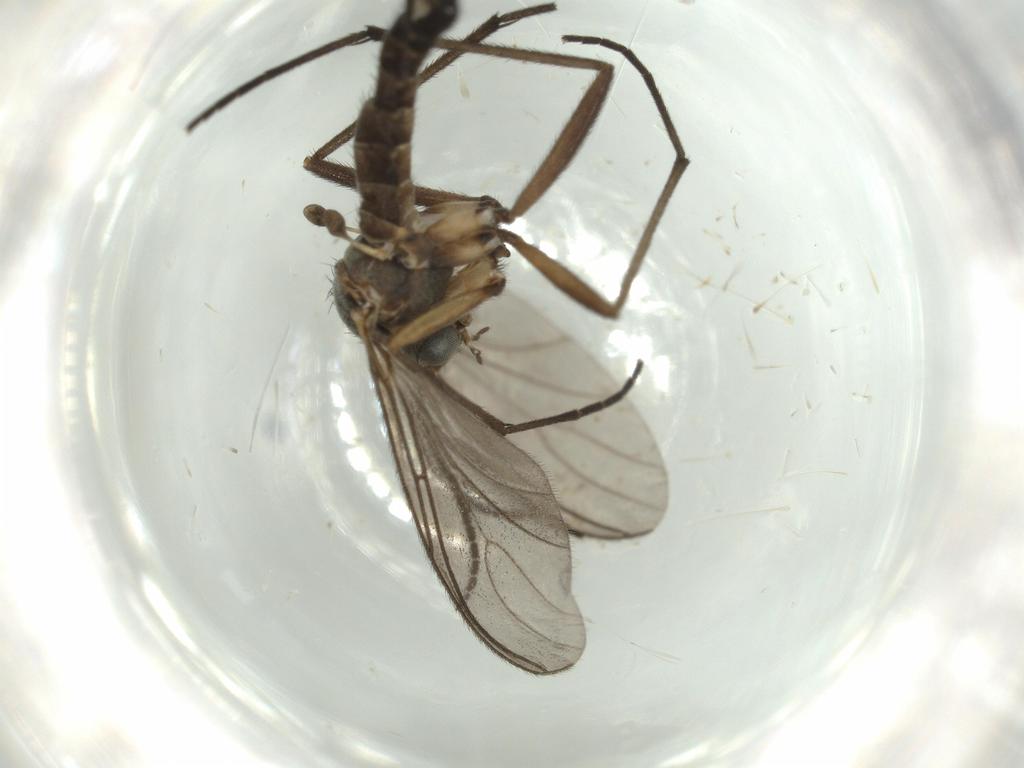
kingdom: Animalia
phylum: Arthropoda
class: Insecta
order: Diptera
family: Sciaridae
